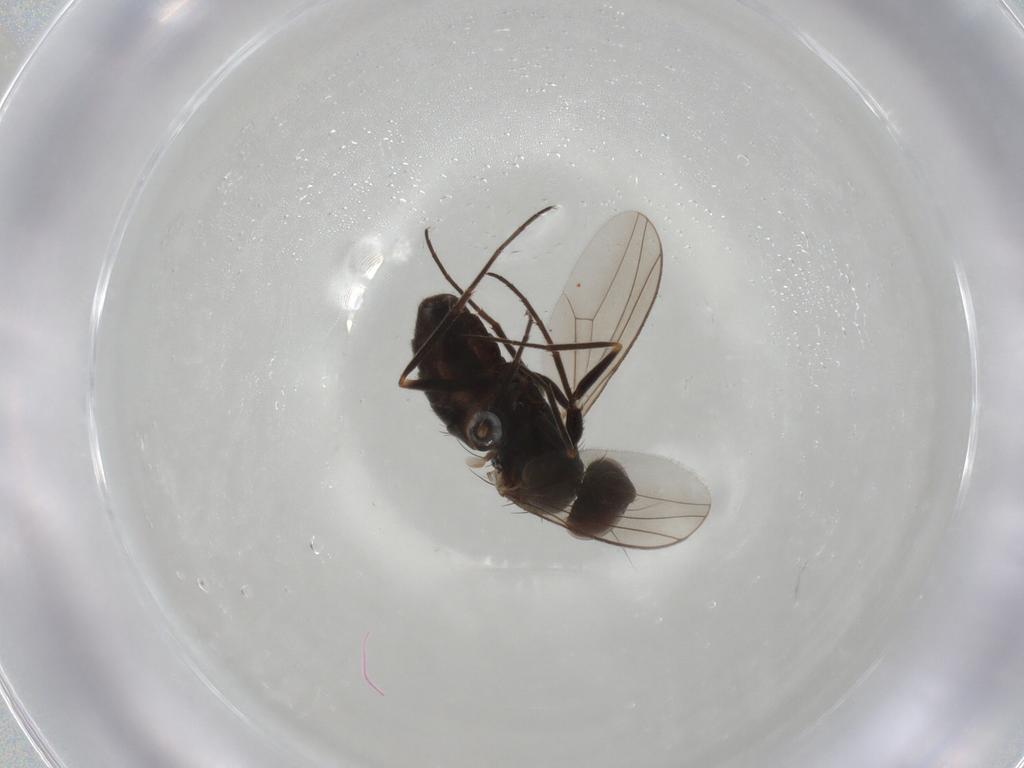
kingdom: Animalia
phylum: Arthropoda
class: Insecta
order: Diptera
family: Dolichopodidae
